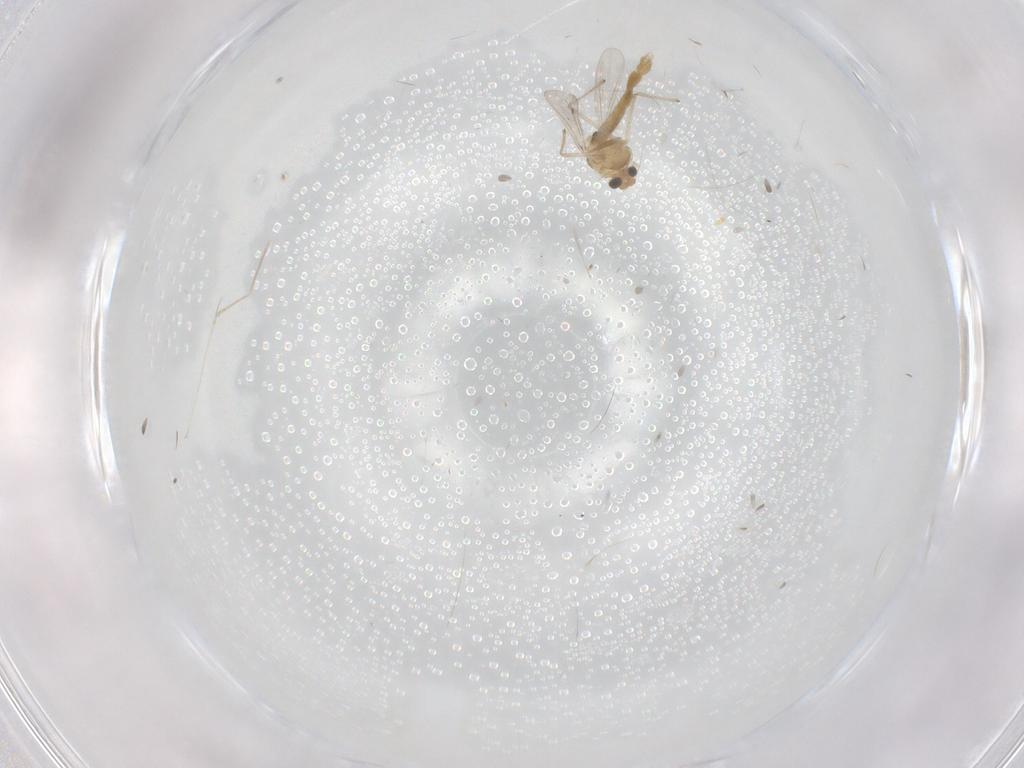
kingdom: Animalia
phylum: Arthropoda
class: Insecta
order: Diptera
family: Chironomidae
